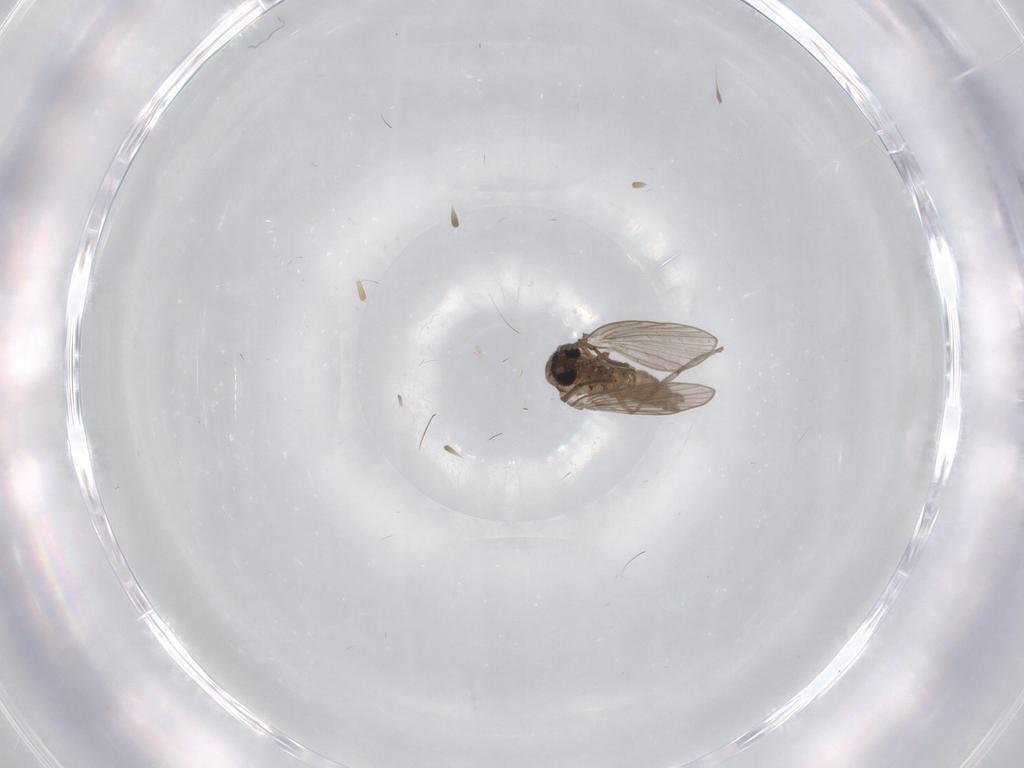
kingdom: Animalia
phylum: Arthropoda
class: Insecta
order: Diptera
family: Psychodidae
